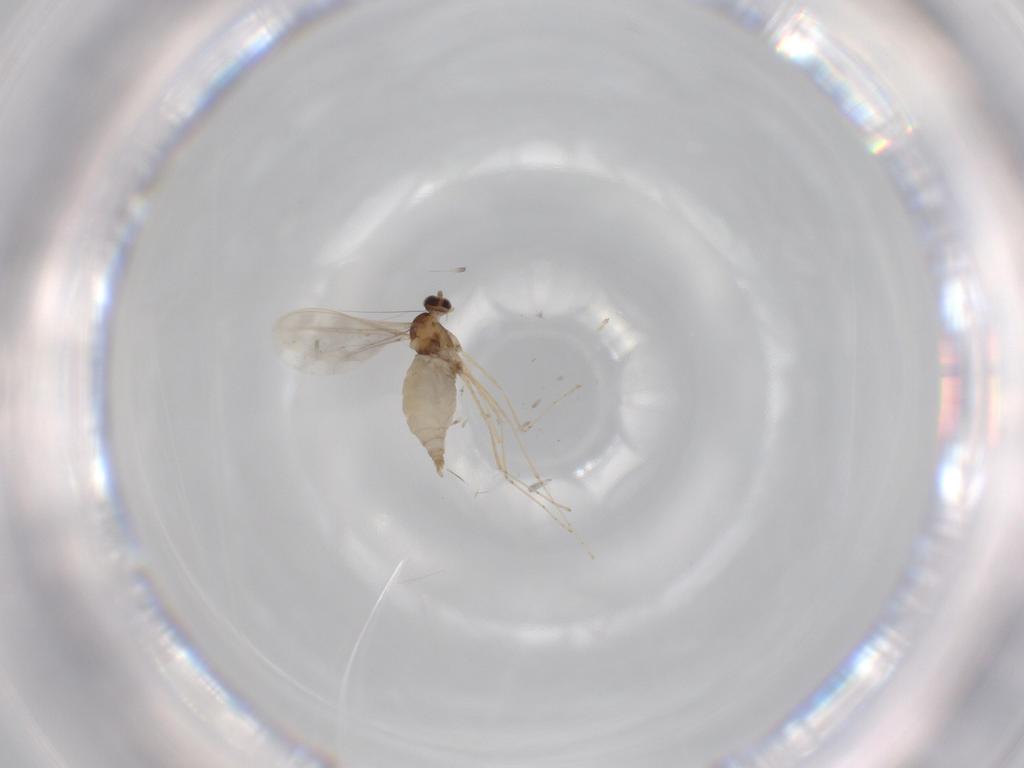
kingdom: Animalia
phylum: Arthropoda
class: Insecta
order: Diptera
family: Cecidomyiidae
